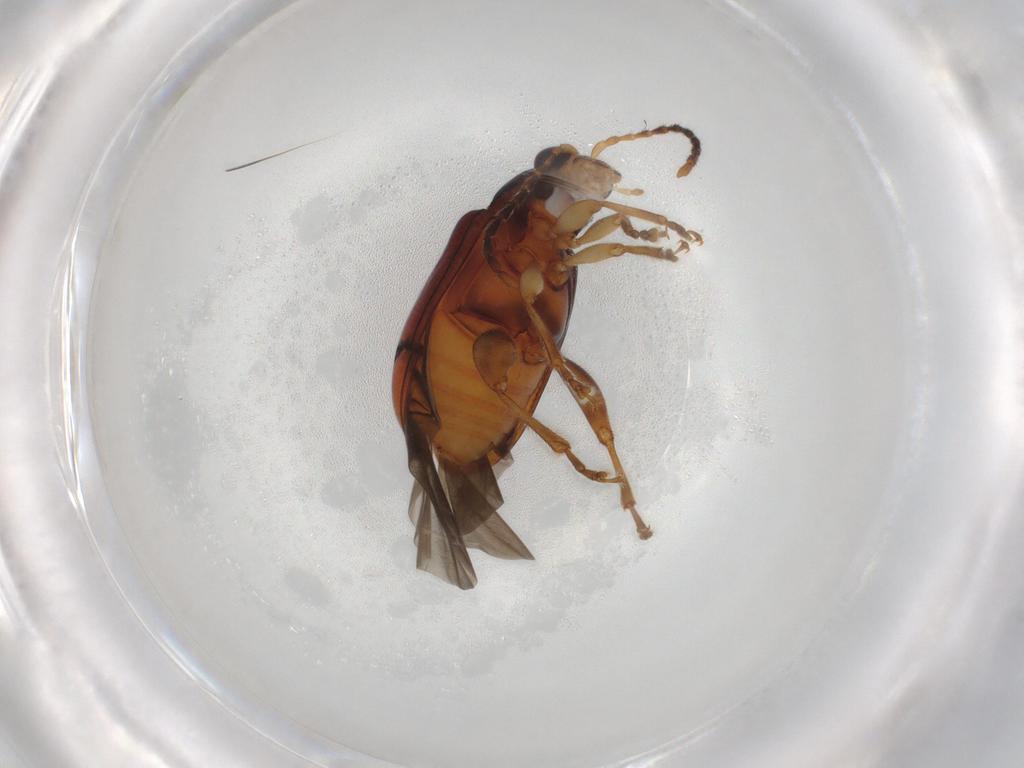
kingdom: Animalia
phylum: Arthropoda
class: Insecta
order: Coleoptera
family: Chrysomelidae
